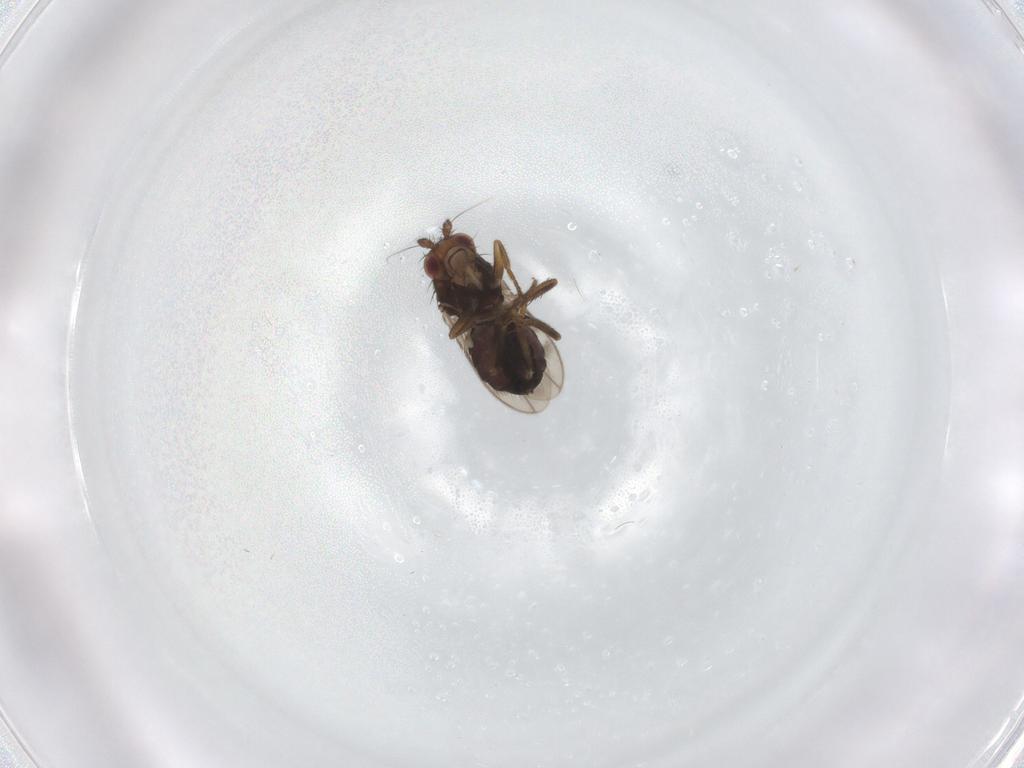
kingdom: Animalia
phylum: Arthropoda
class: Insecta
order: Diptera
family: Sphaeroceridae
